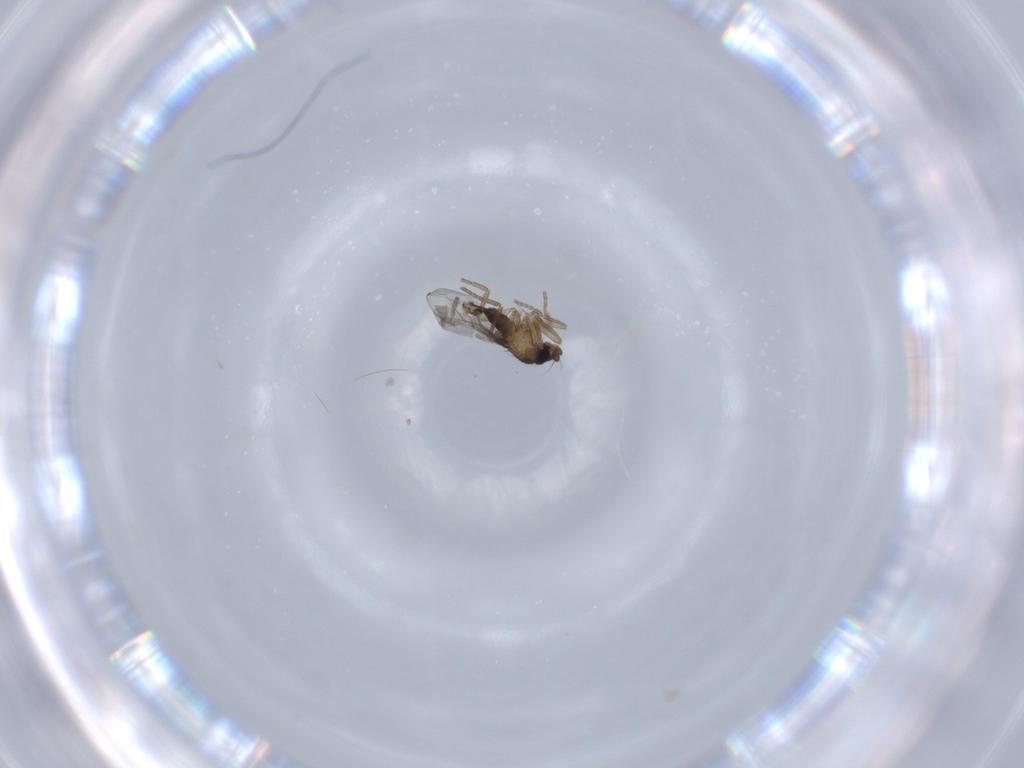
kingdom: Animalia
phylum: Arthropoda
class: Insecta
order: Diptera
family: Phoridae
